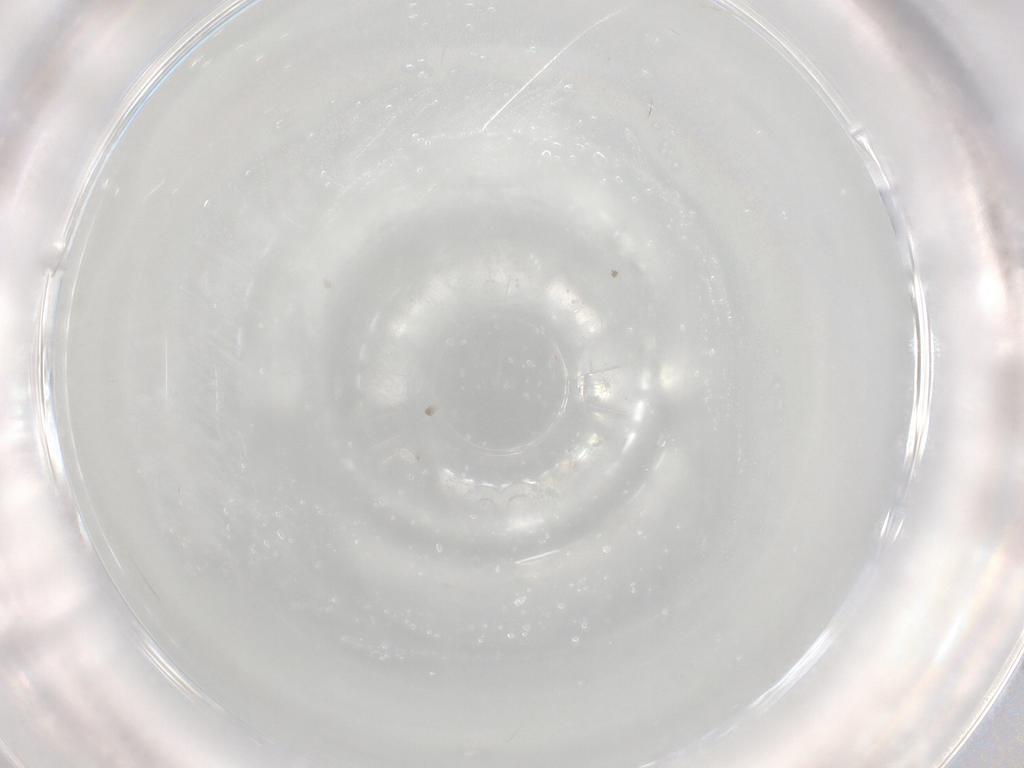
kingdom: Animalia
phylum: Arthropoda
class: Insecta
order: Hymenoptera
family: Eulophidae
